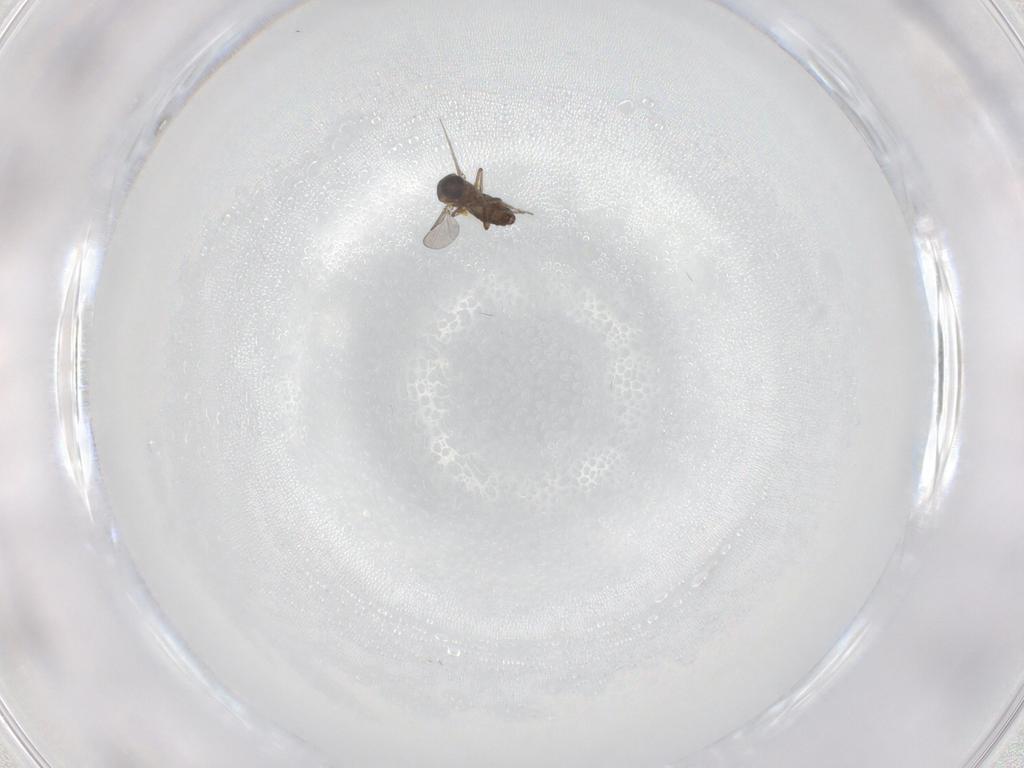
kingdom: Animalia
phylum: Arthropoda
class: Insecta
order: Diptera
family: Ceratopogonidae
